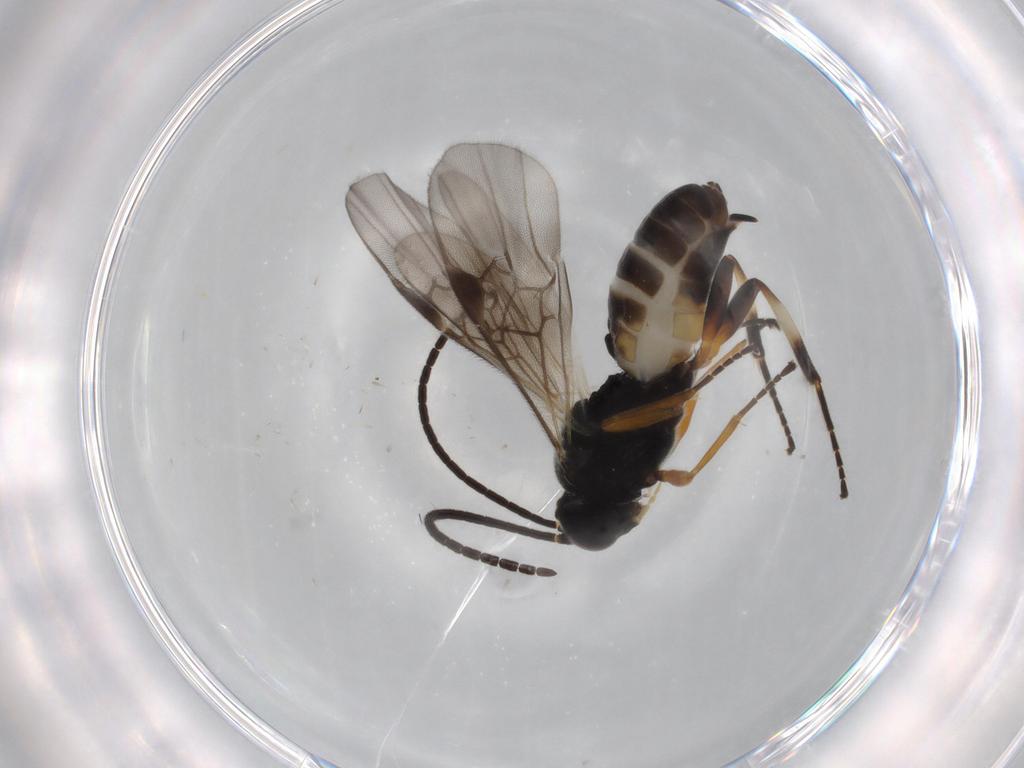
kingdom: Animalia
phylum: Arthropoda
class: Insecta
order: Hymenoptera
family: Braconidae
